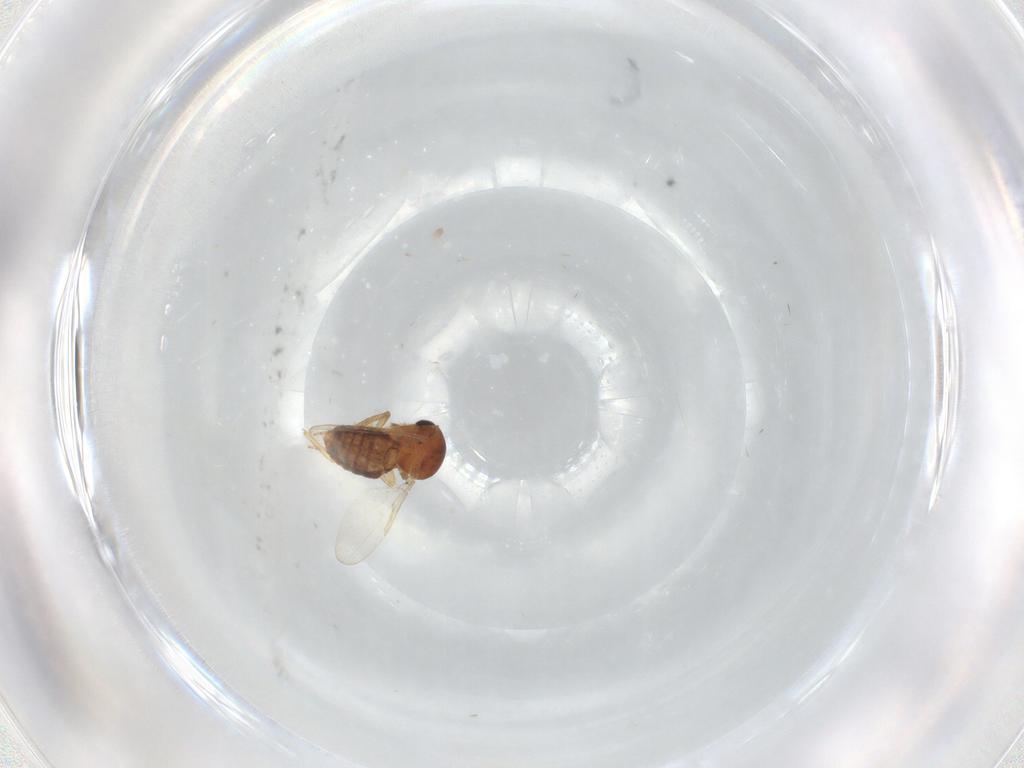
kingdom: Animalia
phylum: Arthropoda
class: Insecta
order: Diptera
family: Ceratopogonidae
